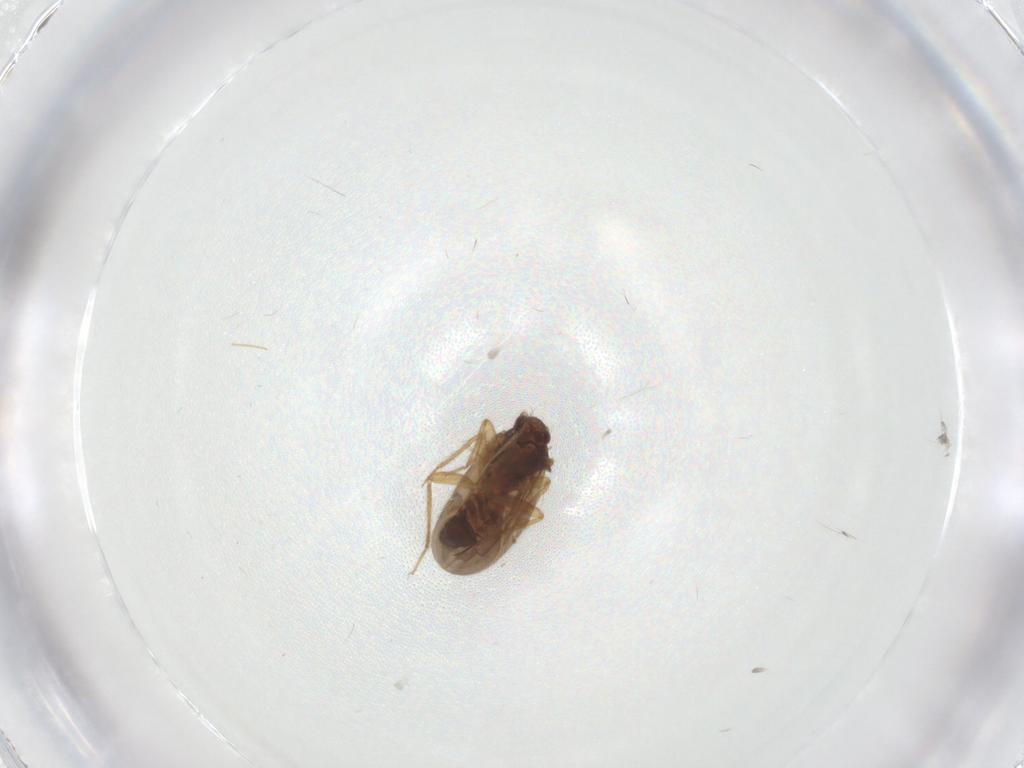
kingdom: Animalia
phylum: Arthropoda
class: Insecta
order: Hemiptera
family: Ceratocombidae
